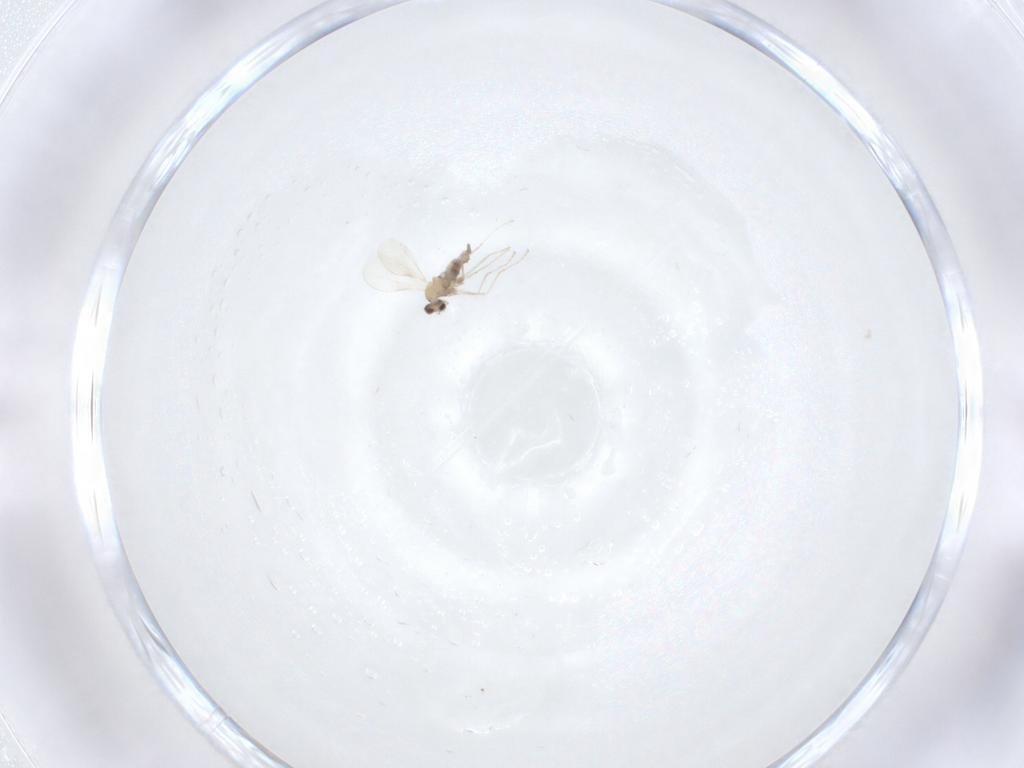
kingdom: Animalia
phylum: Arthropoda
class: Insecta
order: Diptera
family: Cecidomyiidae
